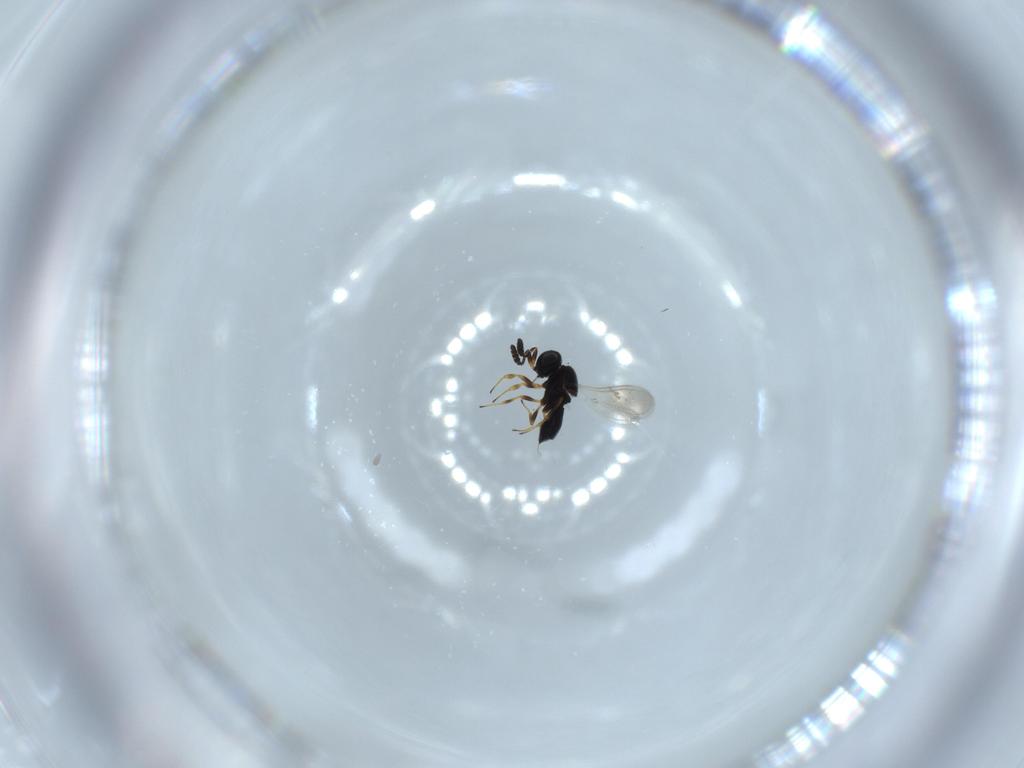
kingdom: Animalia
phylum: Arthropoda
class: Insecta
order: Hymenoptera
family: Scelionidae
